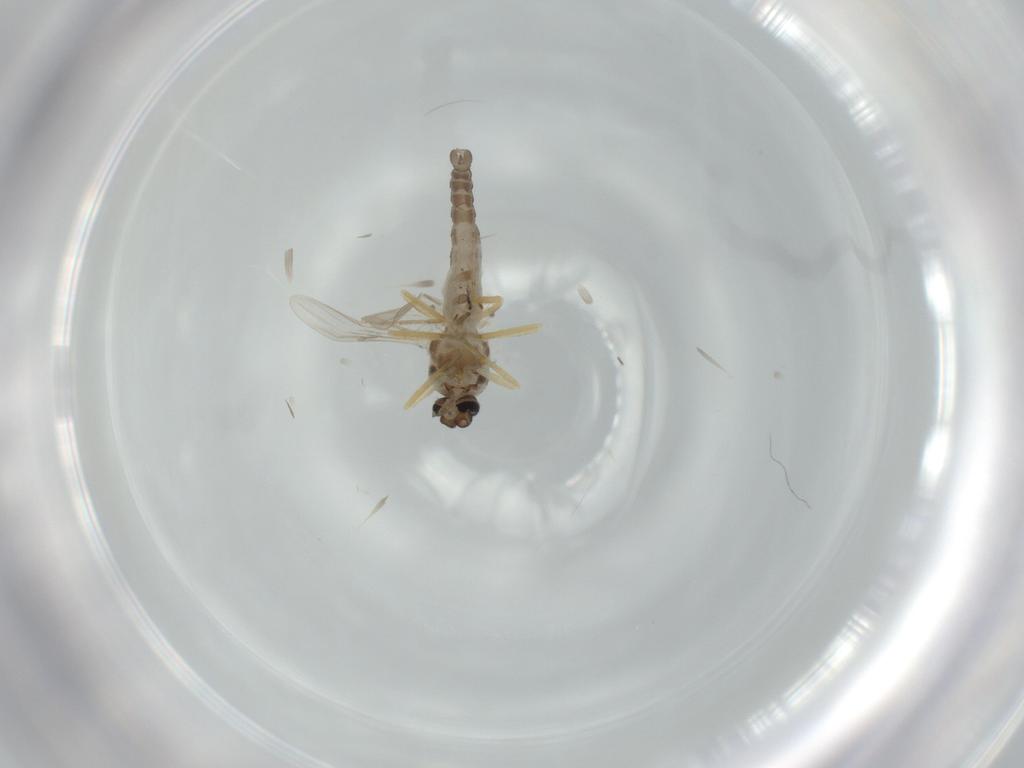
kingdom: Animalia
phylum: Arthropoda
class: Insecta
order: Diptera
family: Ceratopogonidae
